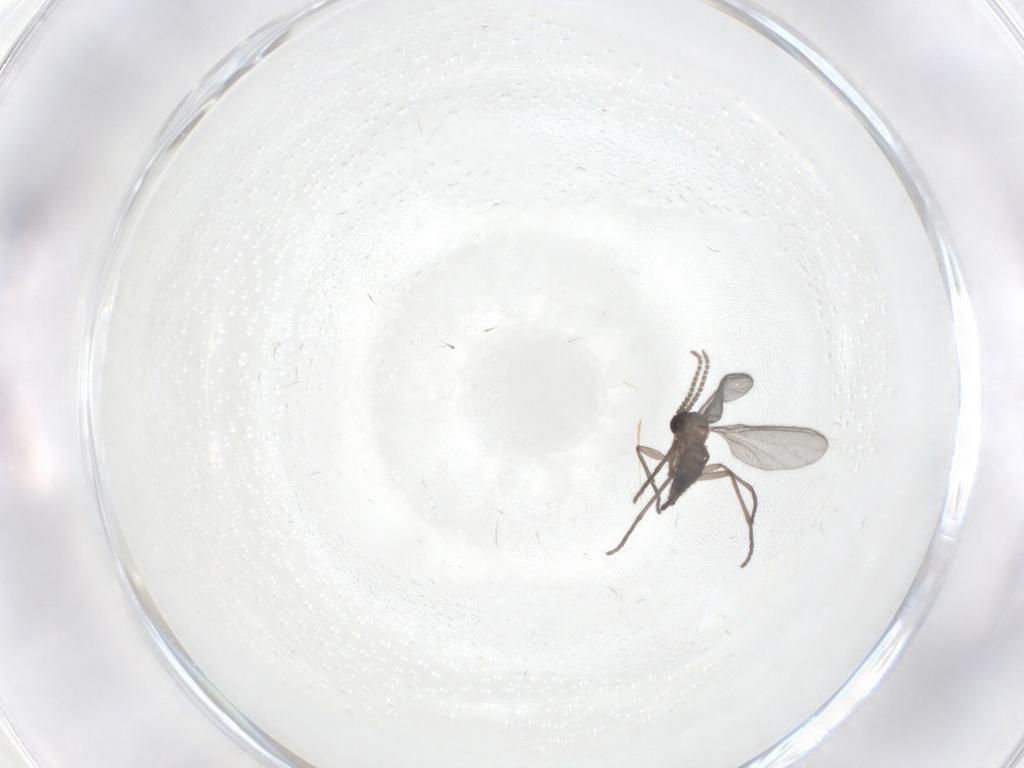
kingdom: Animalia
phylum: Arthropoda
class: Insecta
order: Diptera
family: Sciaridae
